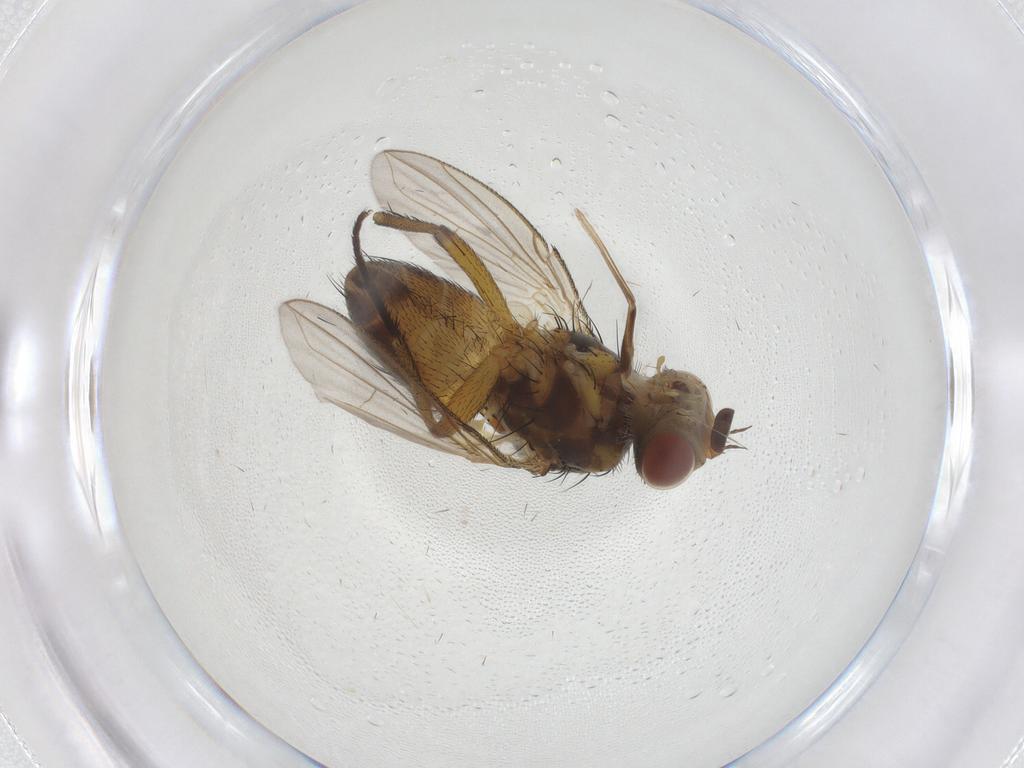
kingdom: Animalia
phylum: Arthropoda
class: Insecta
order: Diptera
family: Tachinidae
